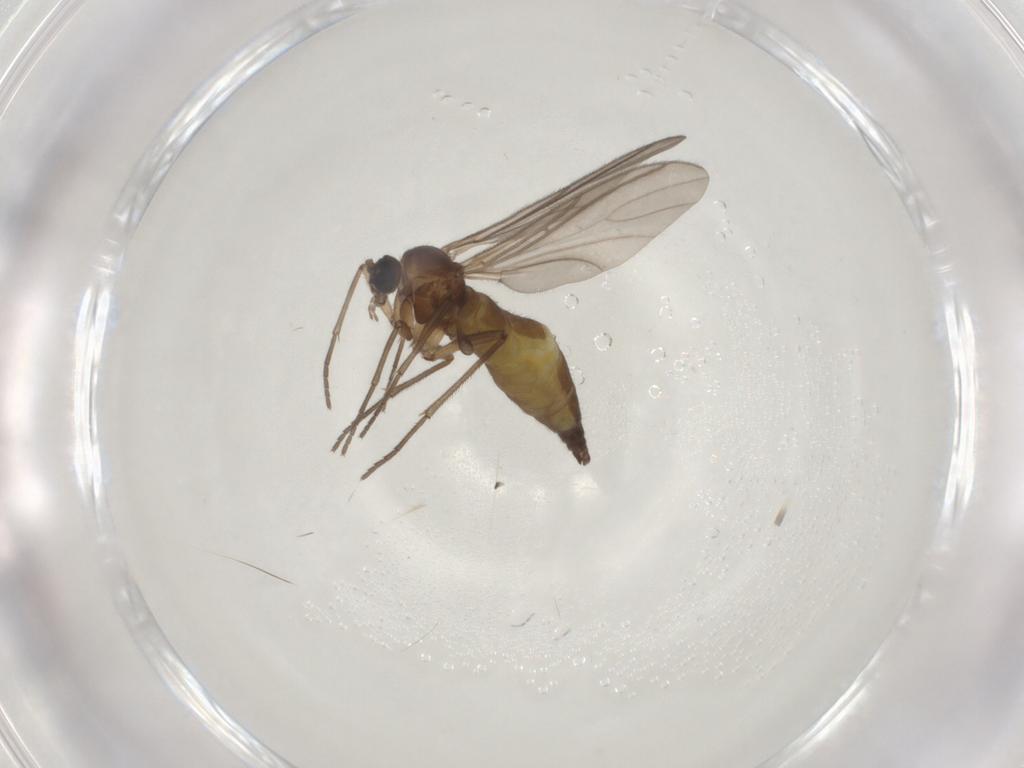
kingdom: Animalia
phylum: Arthropoda
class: Insecta
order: Diptera
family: Sciaridae
